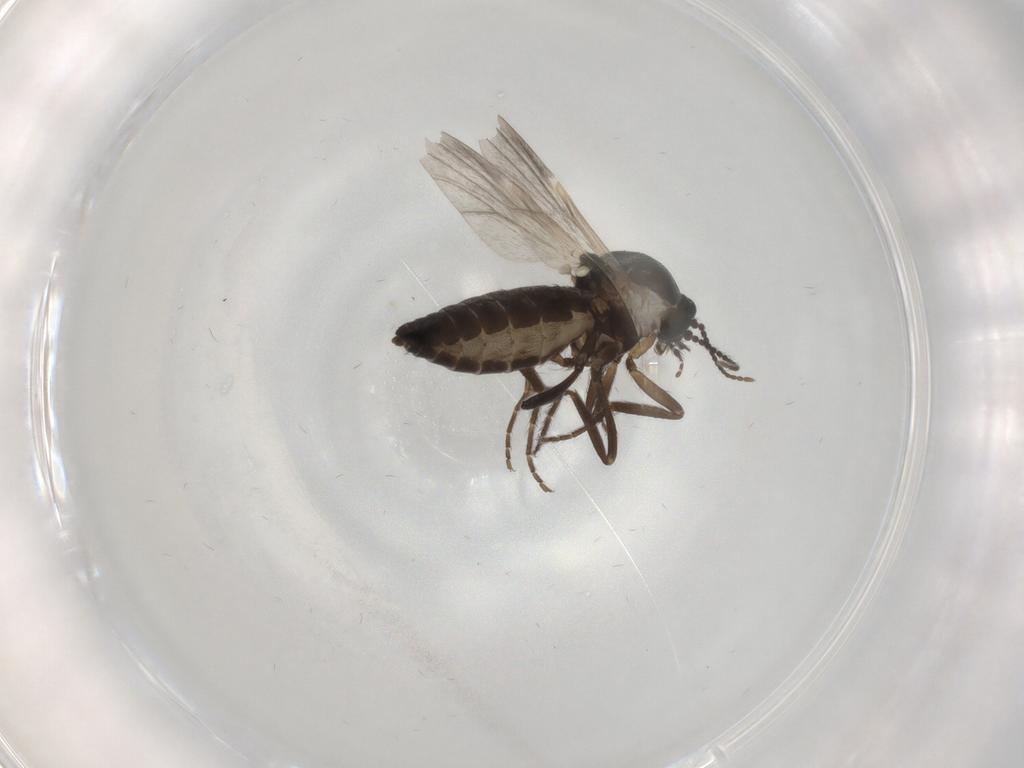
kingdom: Animalia
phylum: Arthropoda
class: Insecta
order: Diptera
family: Ceratopogonidae
